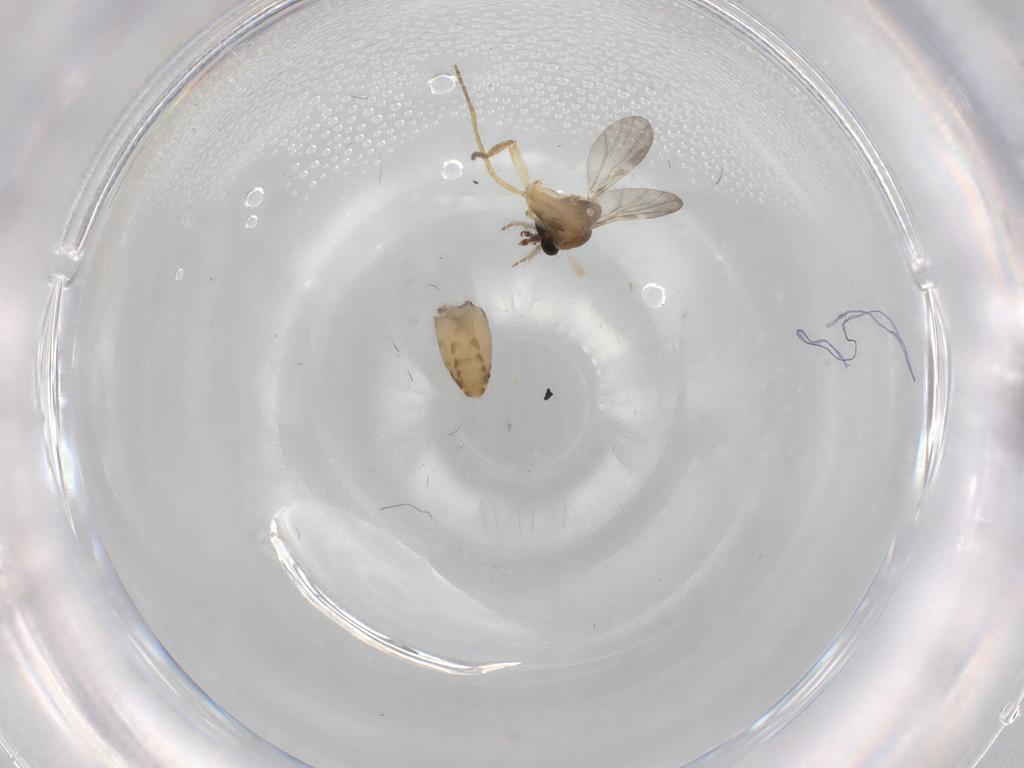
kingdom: Animalia
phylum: Arthropoda
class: Insecta
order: Diptera
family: Ceratopogonidae
